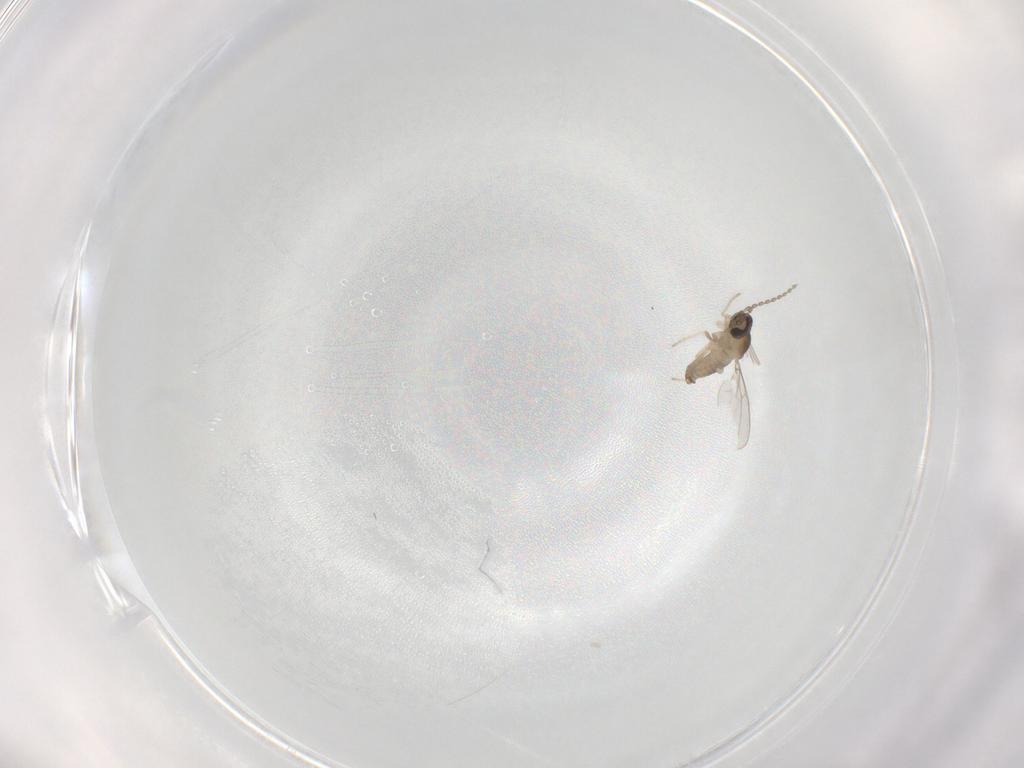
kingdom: Animalia
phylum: Arthropoda
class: Insecta
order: Diptera
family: Cecidomyiidae
